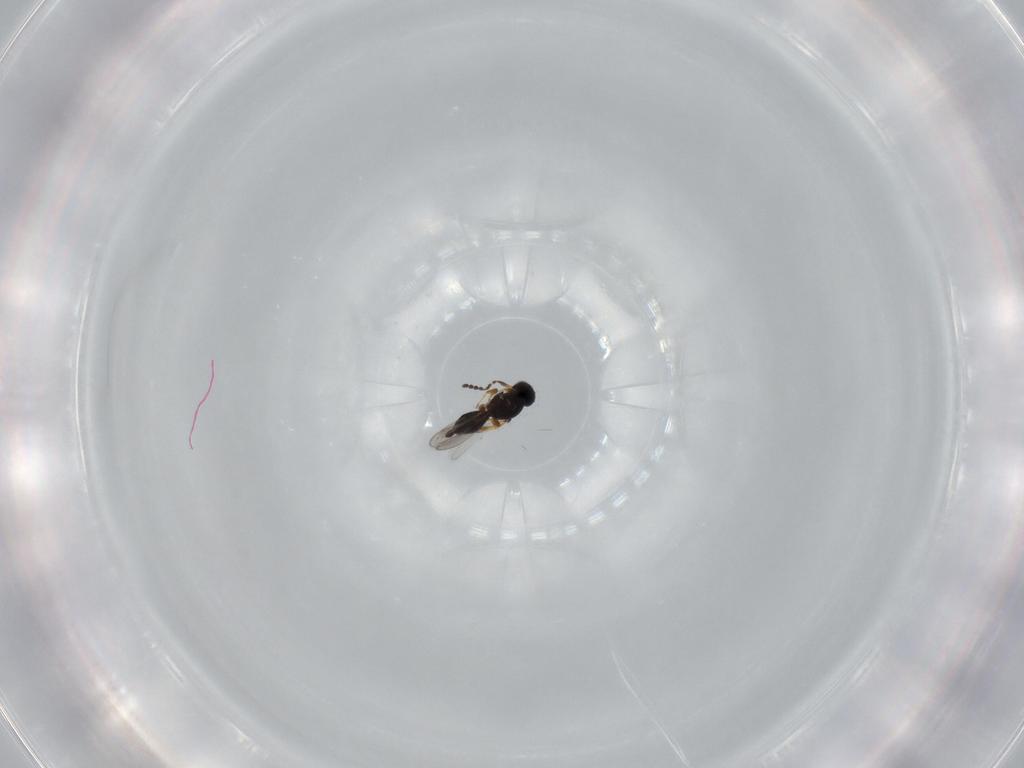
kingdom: Animalia
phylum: Arthropoda
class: Insecta
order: Hymenoptera
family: Platygastridae
